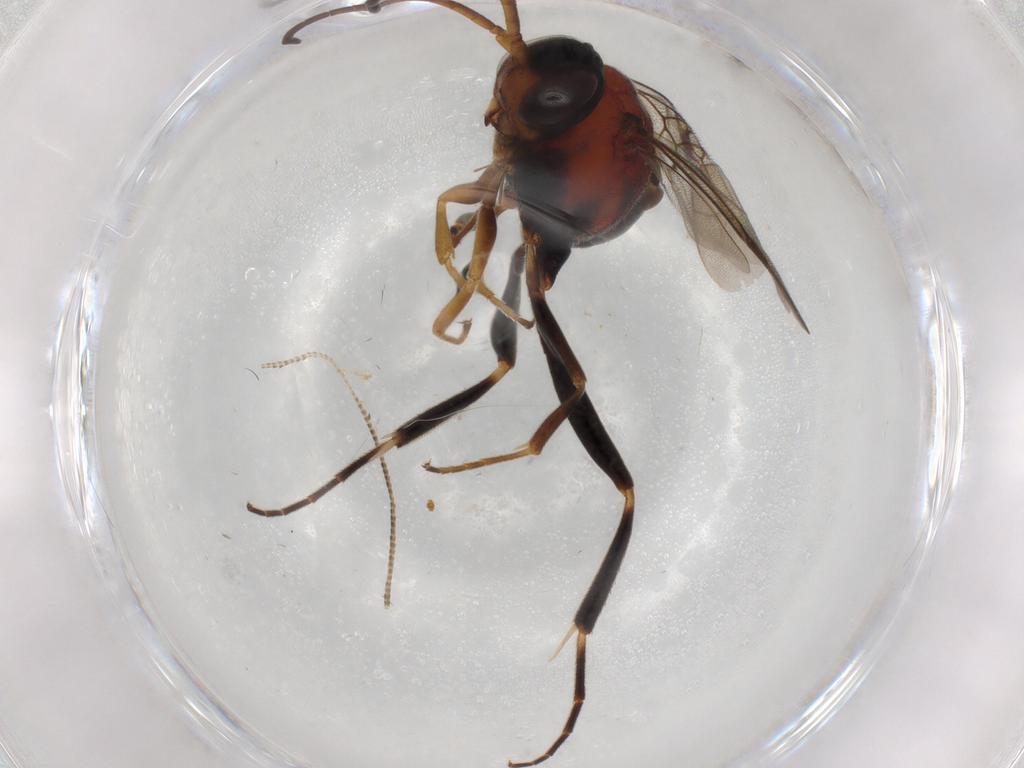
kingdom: Animalia
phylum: Arthropoda
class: Insecta
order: Hymenoptera
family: Evaniidae
